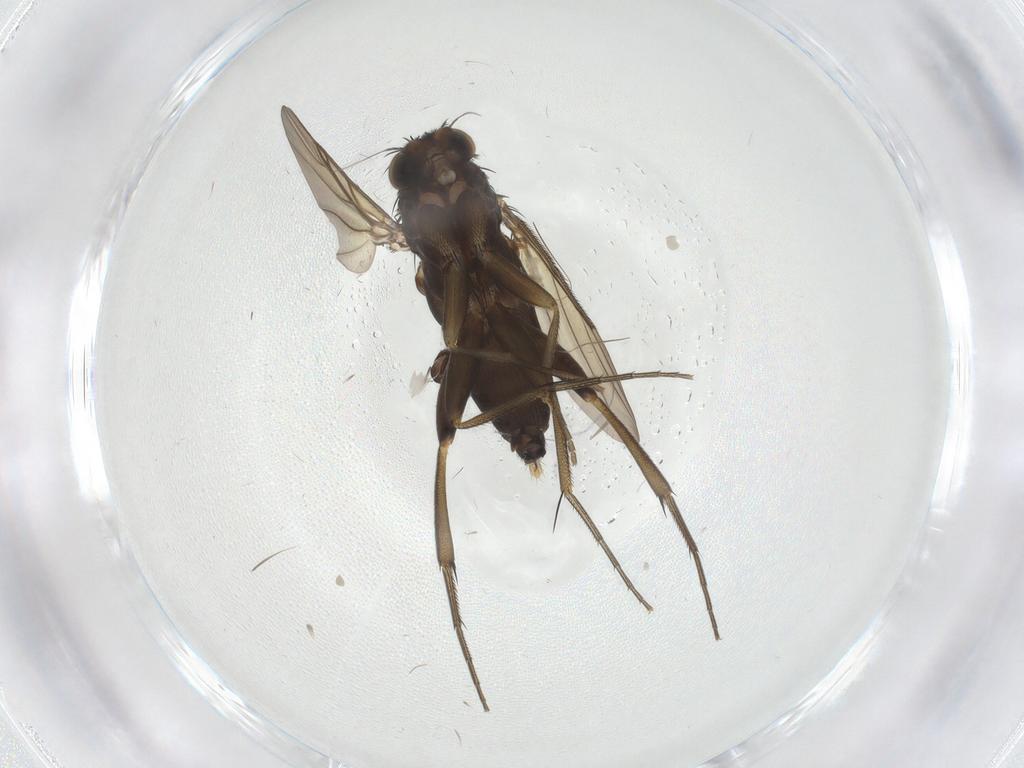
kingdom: Animalia
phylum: Arthropoda
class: Insecta
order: Diptera
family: Phoridae
